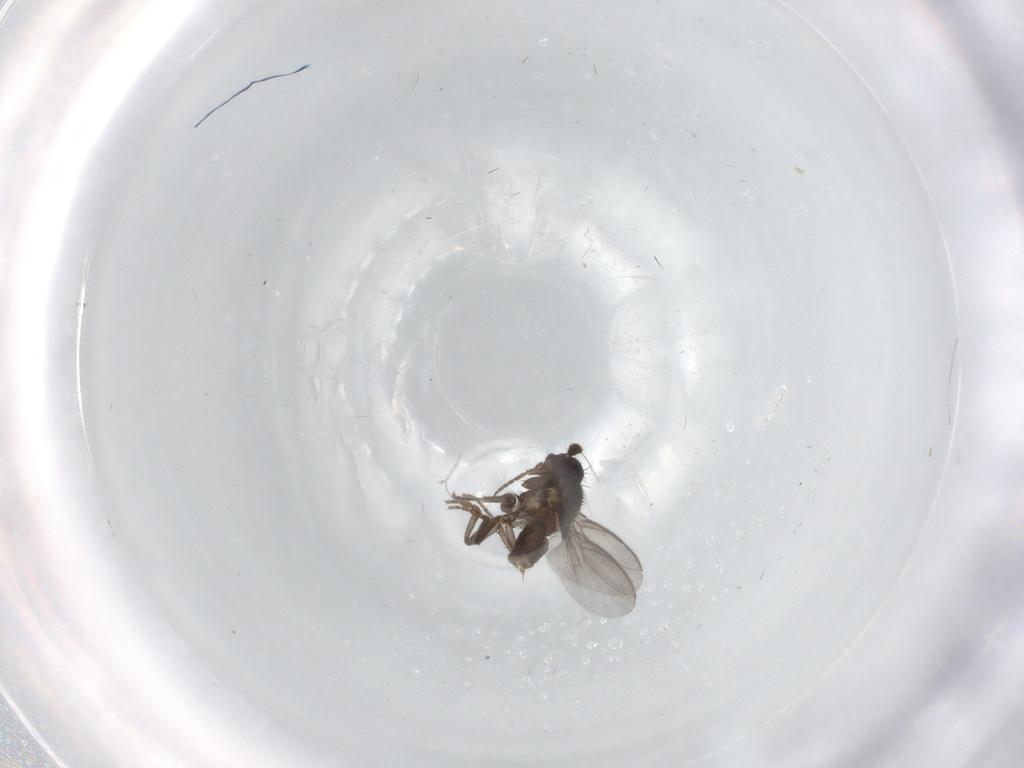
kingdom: Animalia
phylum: Arthropoda
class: Insecta
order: Diptera
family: Sphaeroceridae
